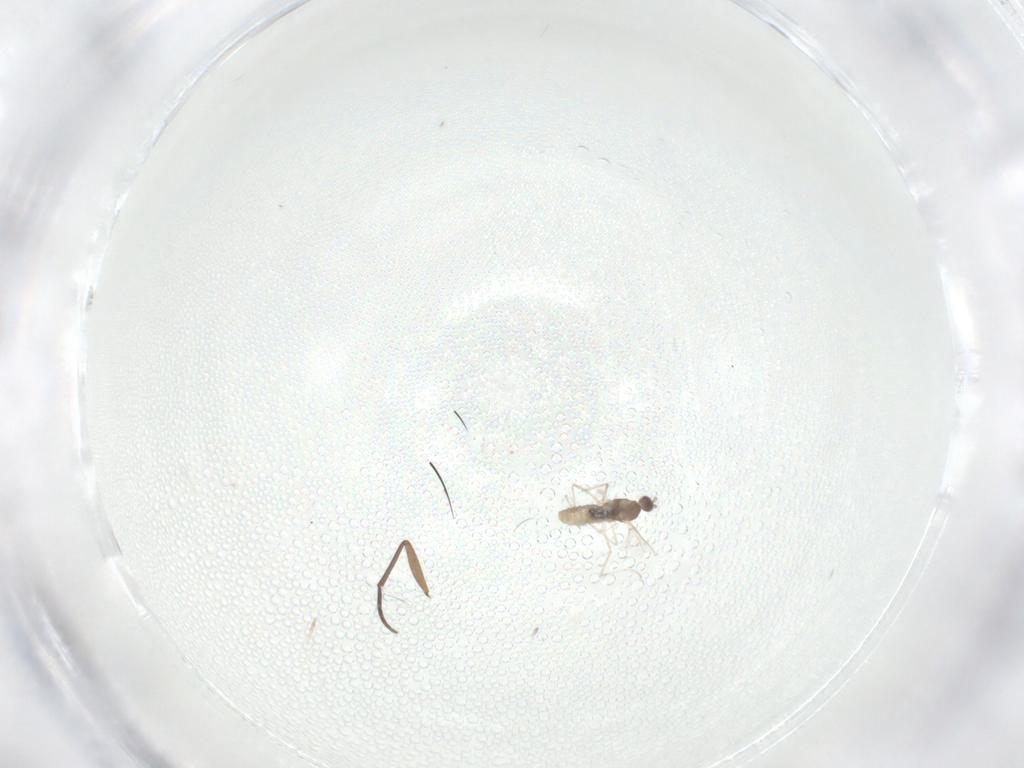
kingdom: Animalia
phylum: Arthropoda
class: Insecta
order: Diptera
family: Cecidomyiidae
